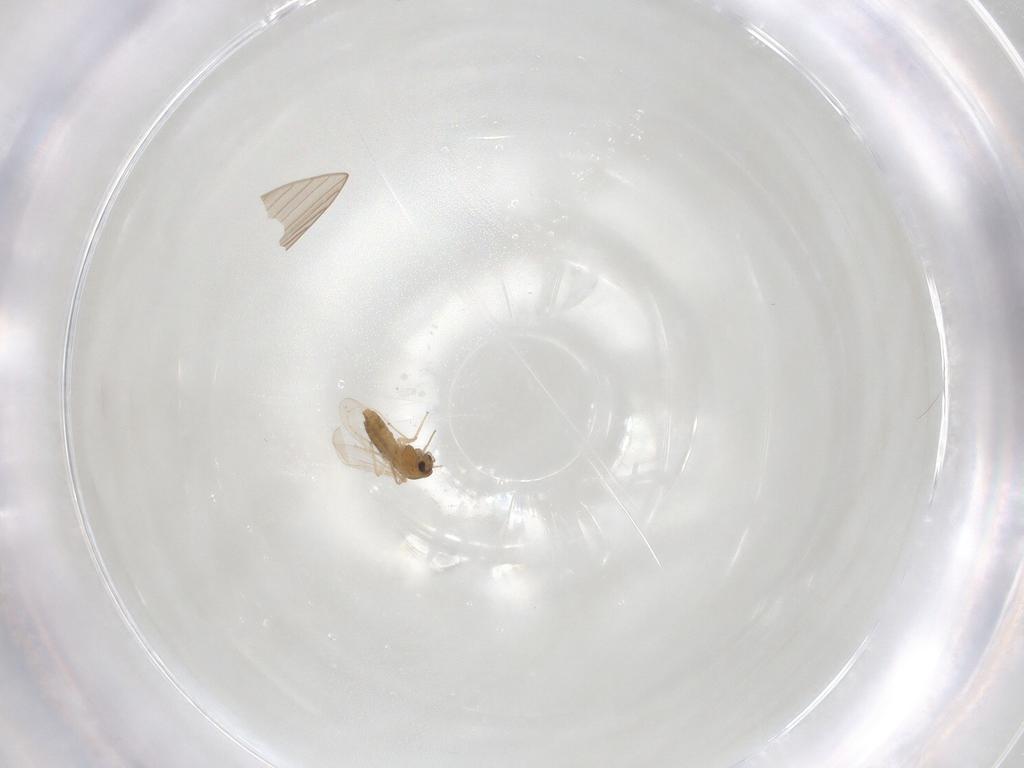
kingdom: Animalia
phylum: Arthropoda
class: Insecta
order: Diptera
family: Chironomidae
